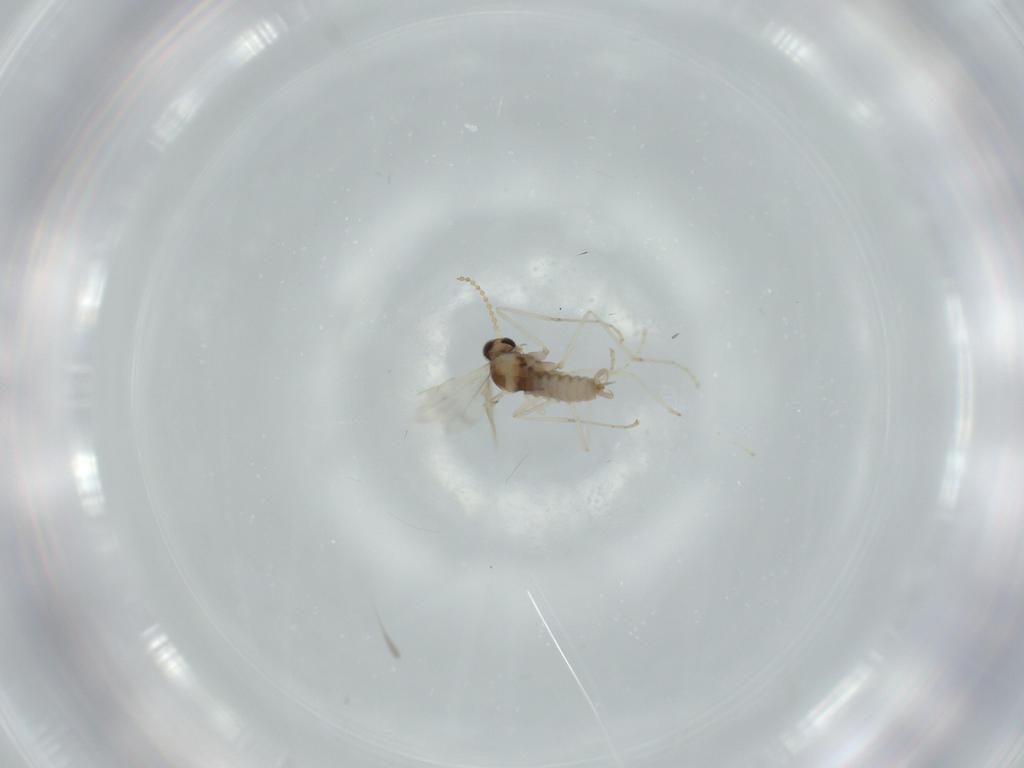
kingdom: Animalia
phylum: Arthropoda
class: Insecta
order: Diptera
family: Cecidomyiidae
